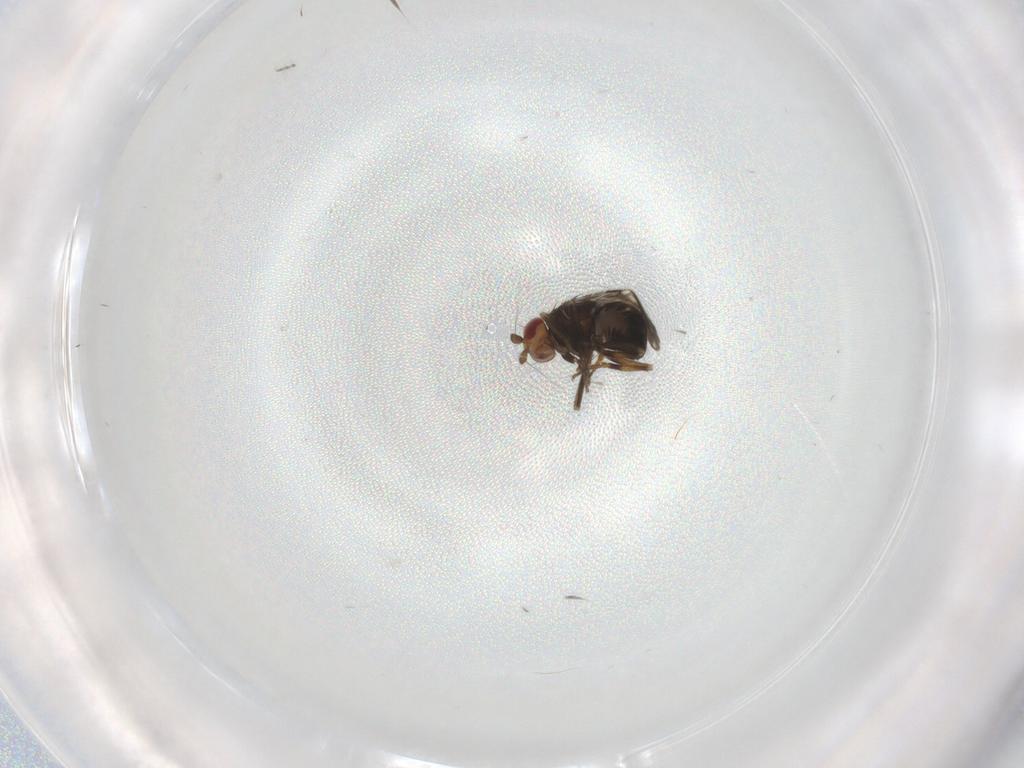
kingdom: Animalia
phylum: Arthropoda
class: Insecta
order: Diptera
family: Sphaeroceridae
